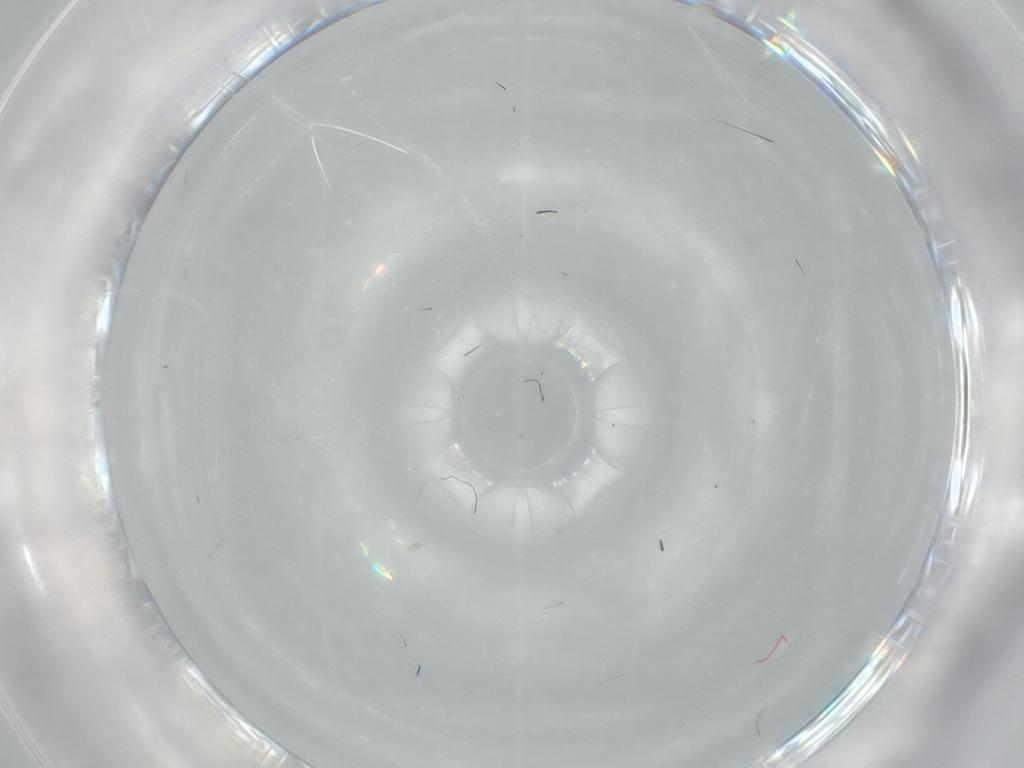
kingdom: Animalia
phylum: Arthropoda
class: Arachnida
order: Trombidiformes
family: Eupodidae
